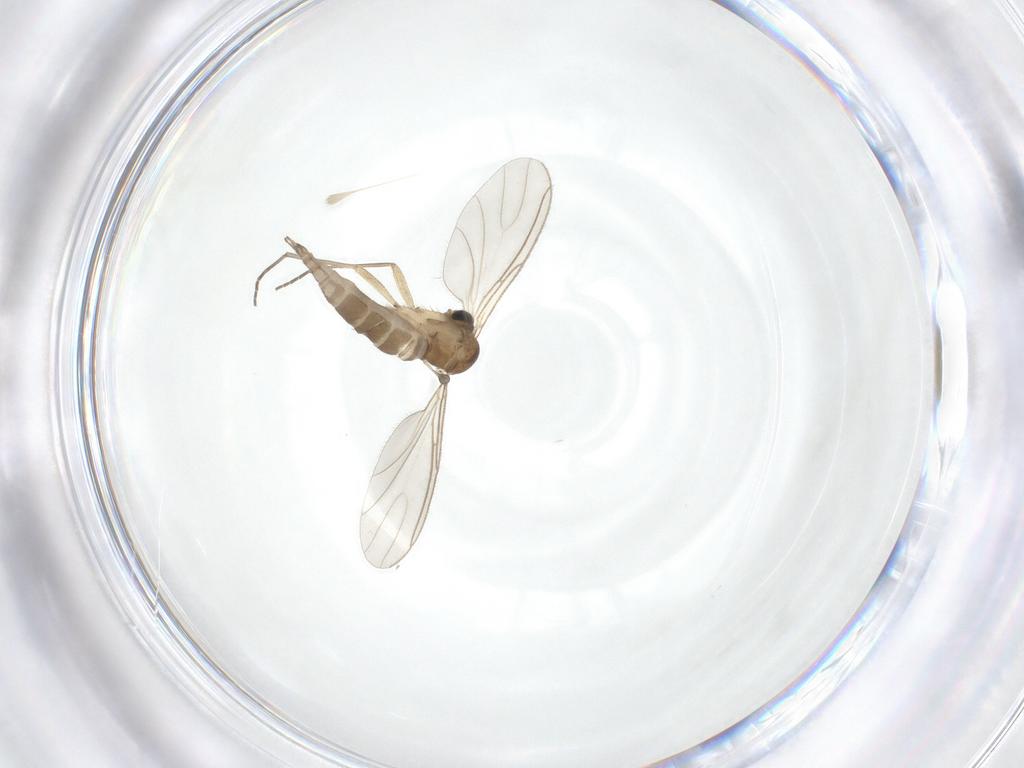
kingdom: Animalia
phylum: Arthropoda
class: Insecta
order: Diptera
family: Sciaridae
